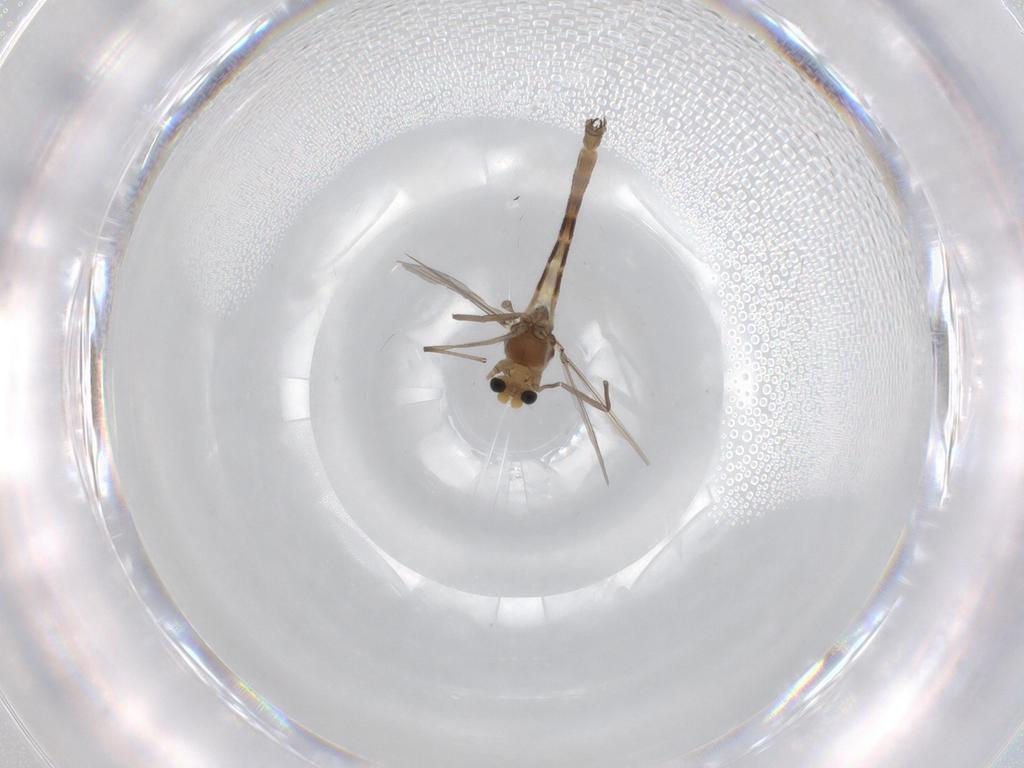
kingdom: Animalia
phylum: Arthropoda
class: Insecta
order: Diptera
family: Chironomidae
